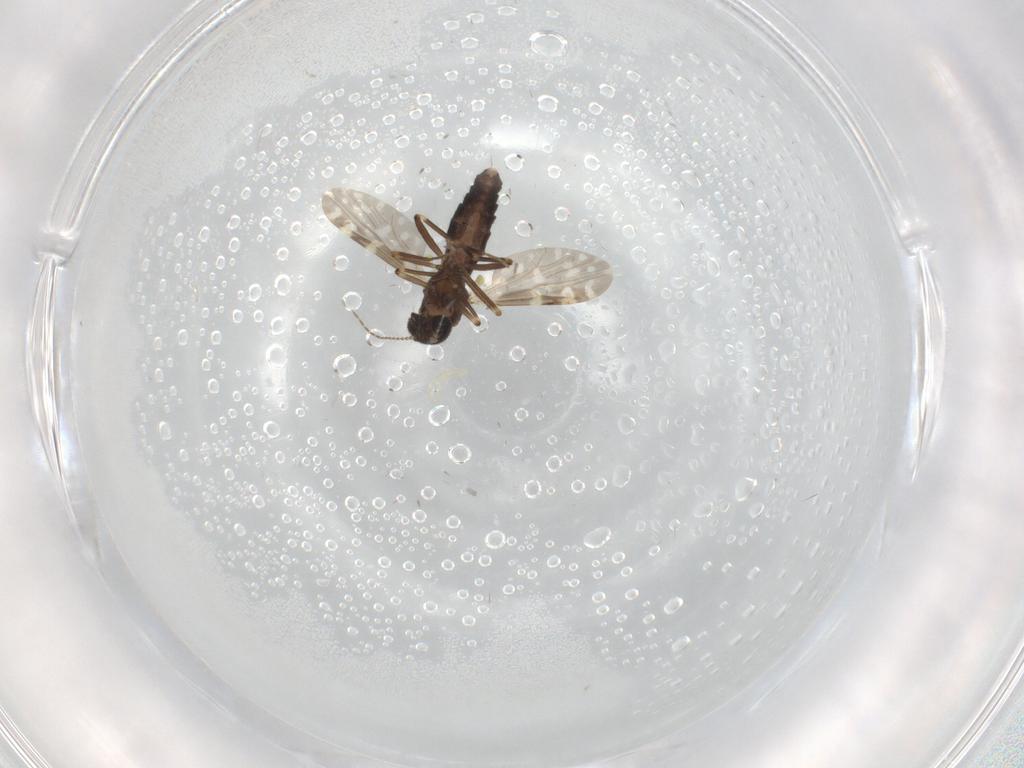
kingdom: Animalia
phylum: Arthropoda
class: Insecta
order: Diptera
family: Ceratopogonidae
